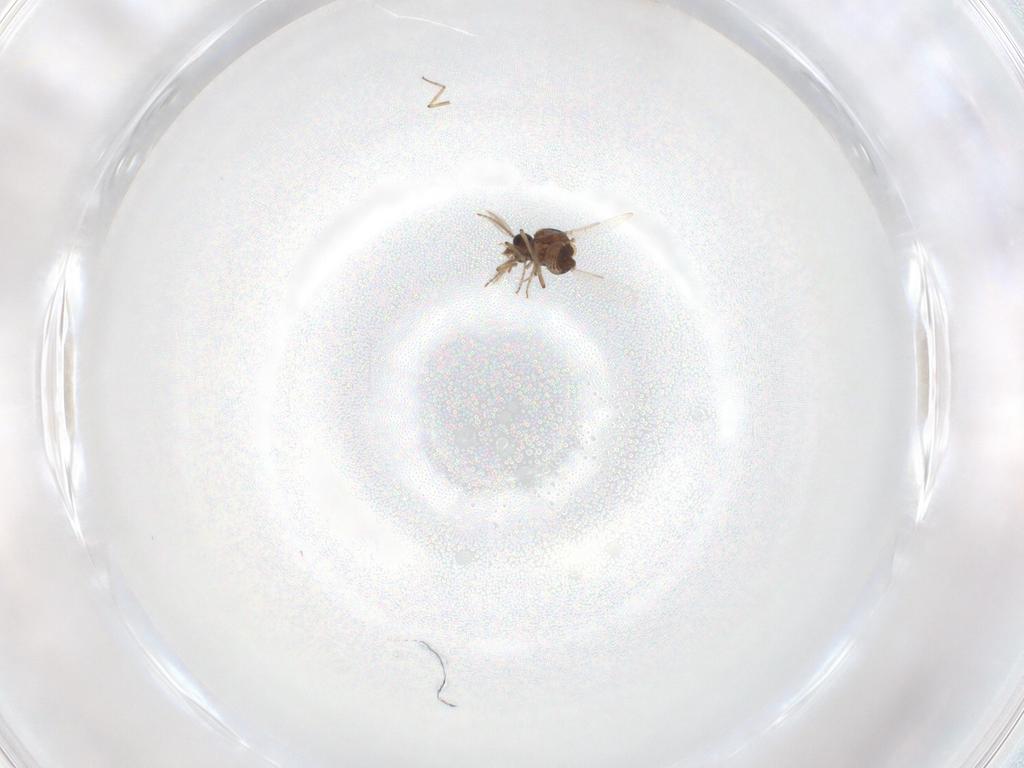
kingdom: Animalia
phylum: Arthropoda
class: Insecta
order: Diptera
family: Ceratopogonidae
